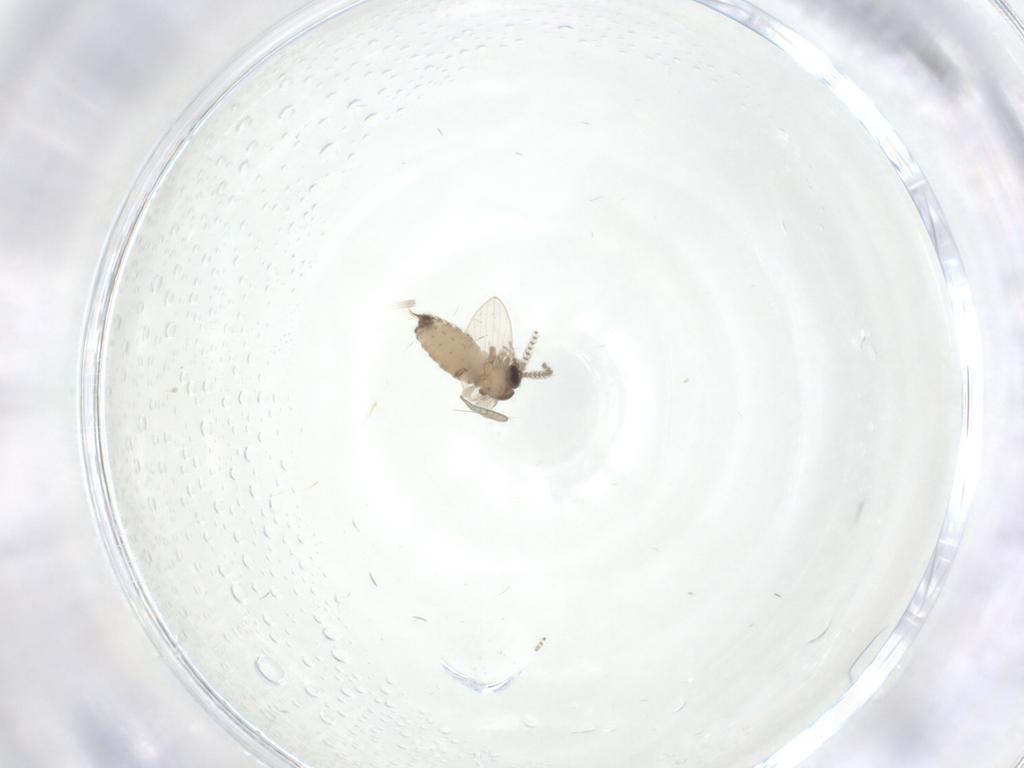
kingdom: Animalia
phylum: Arthropoda
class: Insecta
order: Diptera
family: Psychodidae
